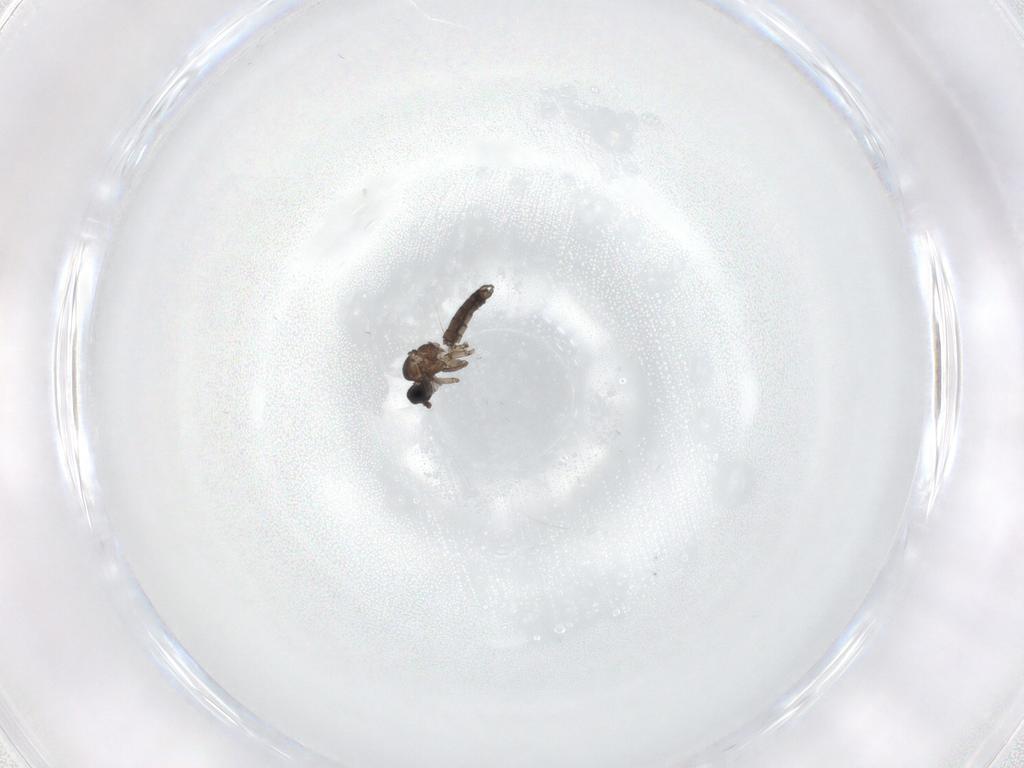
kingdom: Animalia
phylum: Arthropoda
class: Insecta
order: Diptera
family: Sciaridae
